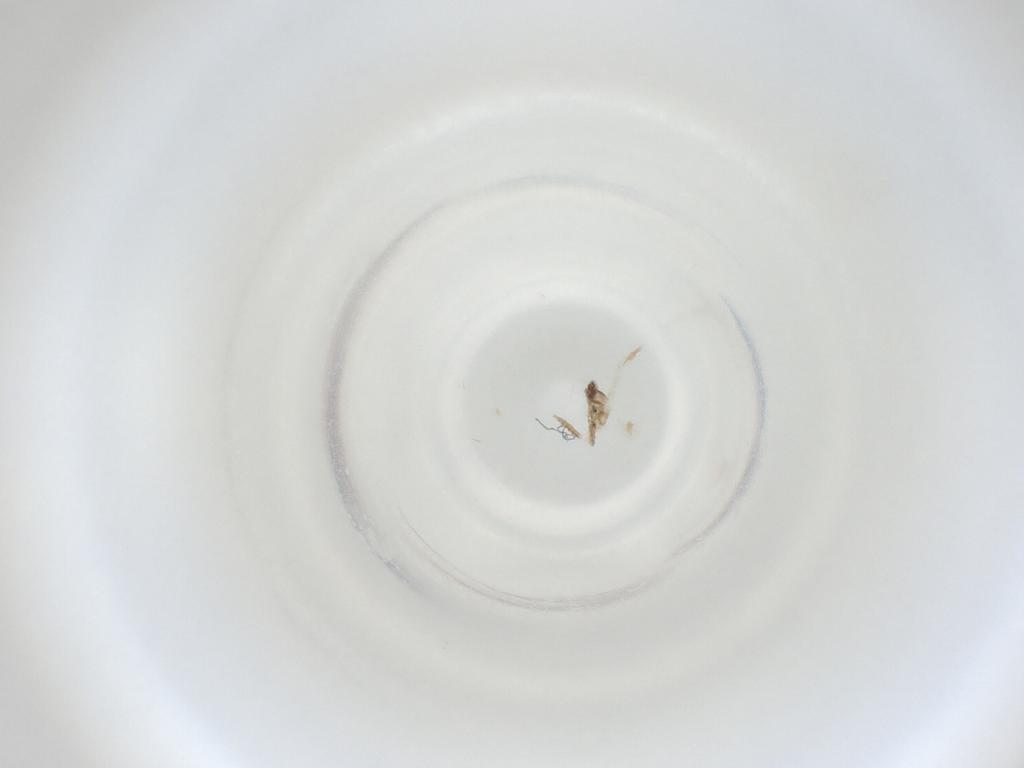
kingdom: Animalia
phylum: Arthropoda
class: Insecta
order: Diptera
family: Cecidomyiidae
